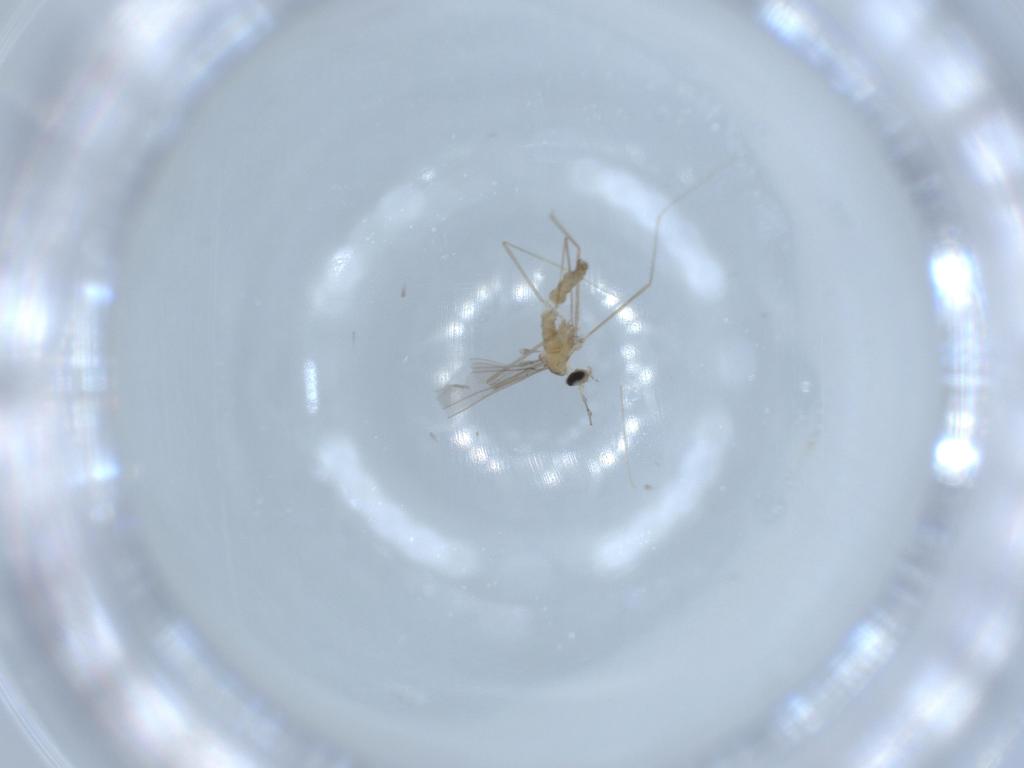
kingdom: Animalia
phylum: Arthropoda
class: Insecta
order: Diptera
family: Cecidomyiidae
